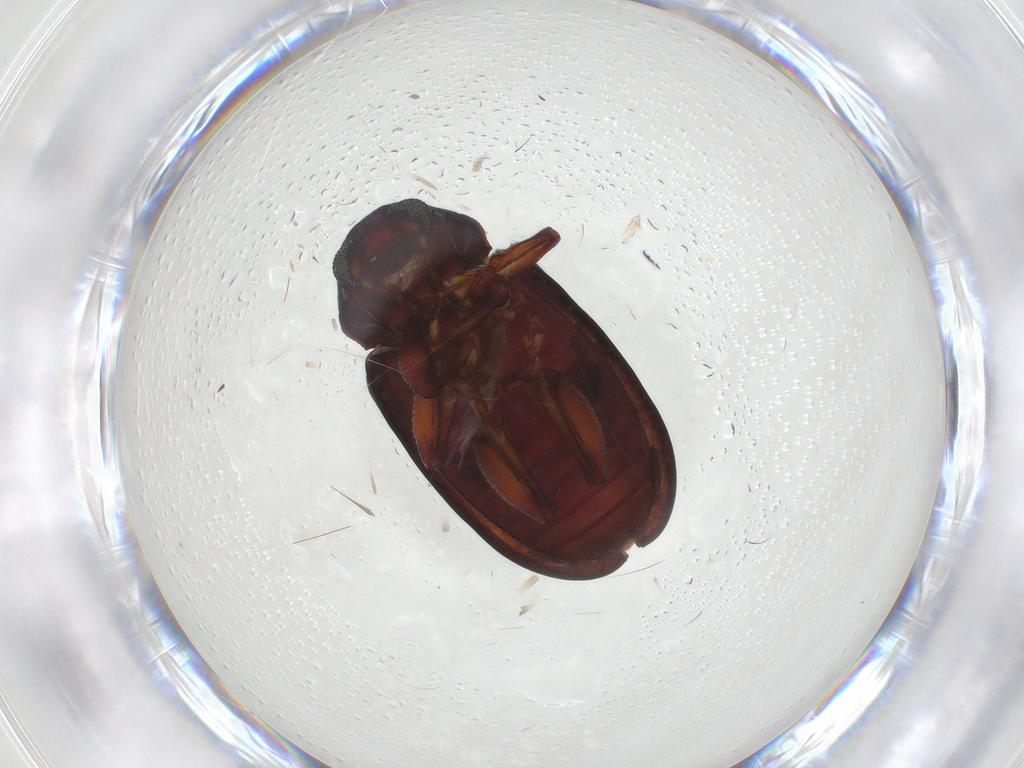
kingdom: Animalia
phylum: Arthropoda
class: Insecta
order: Coleoptera
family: Chrysomelidae
